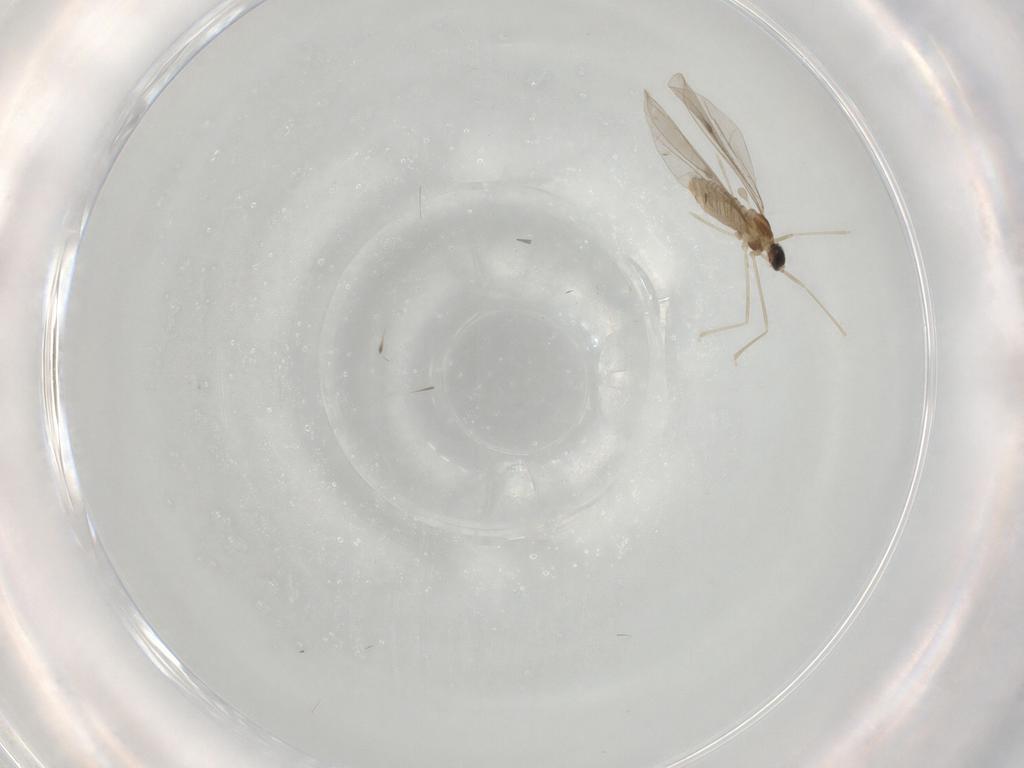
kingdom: Animalia
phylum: Arthropoda
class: Insecta
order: Diptera
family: Cecidomyiidae
